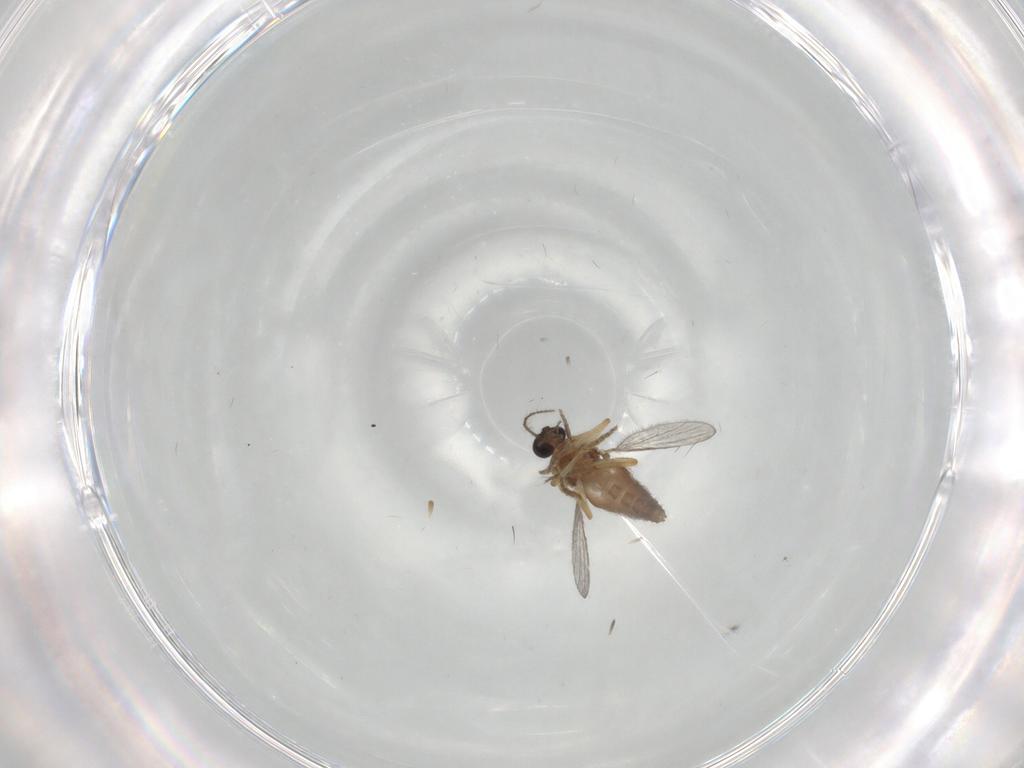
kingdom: Animalia
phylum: Arthropoda
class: Insecta
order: Diptera
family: Ceratopogonidae
